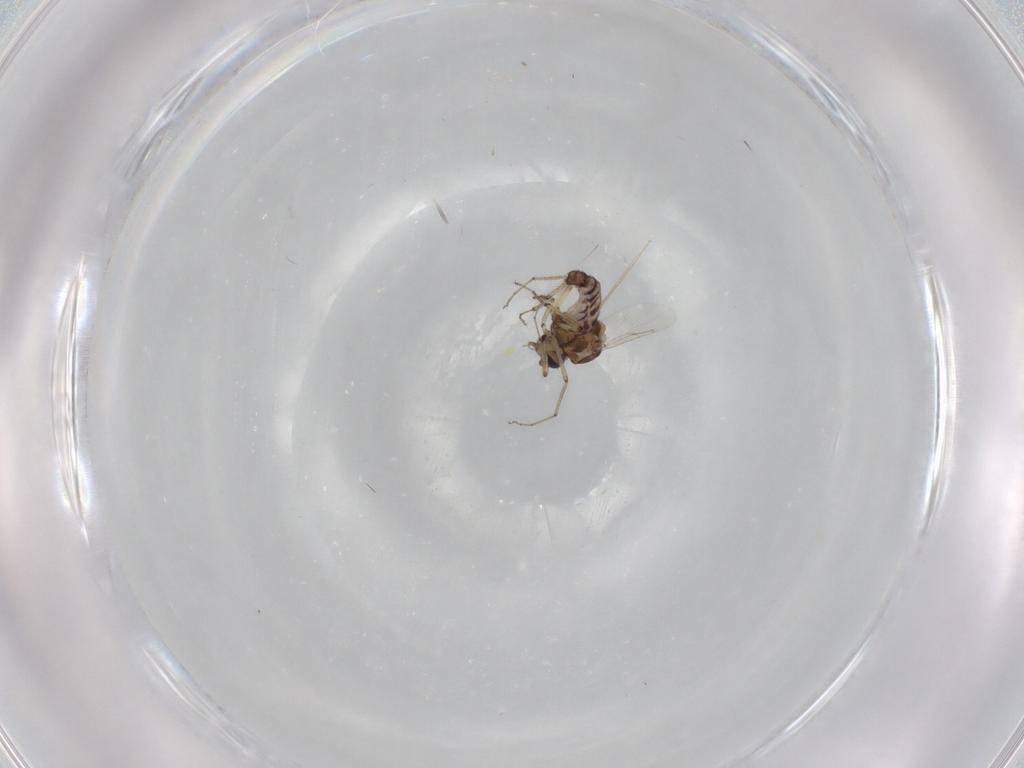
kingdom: Animalia
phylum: Arthropoda
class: Insecta
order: Diptera
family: Ceratopogonidae
